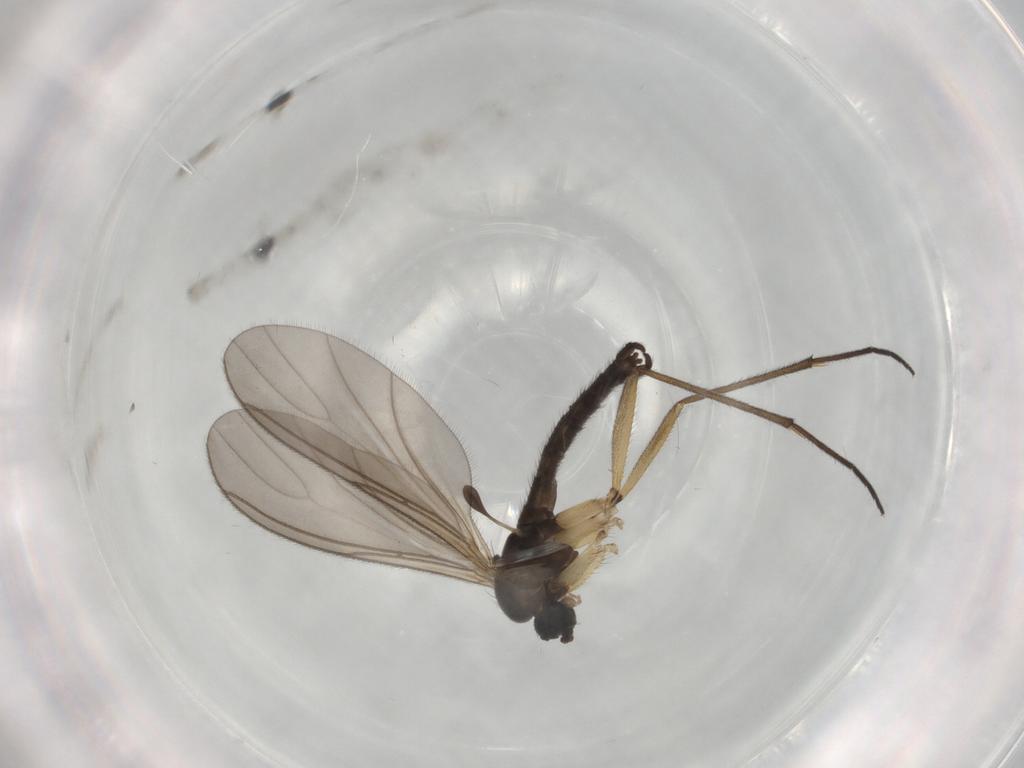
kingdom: Animalia
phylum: Arthropoda
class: Insecta
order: Diptera
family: Sciaridae
